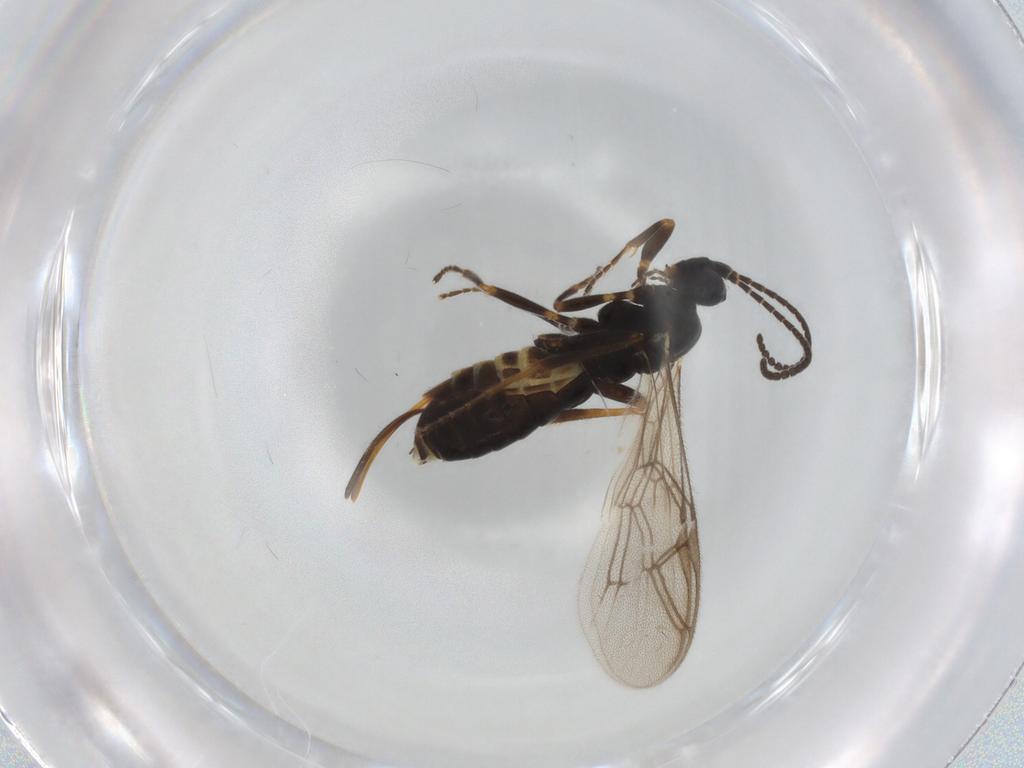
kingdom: Animalia
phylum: Arthropoda
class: Insecta
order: Hymenoptera
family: Ichneumonidae
